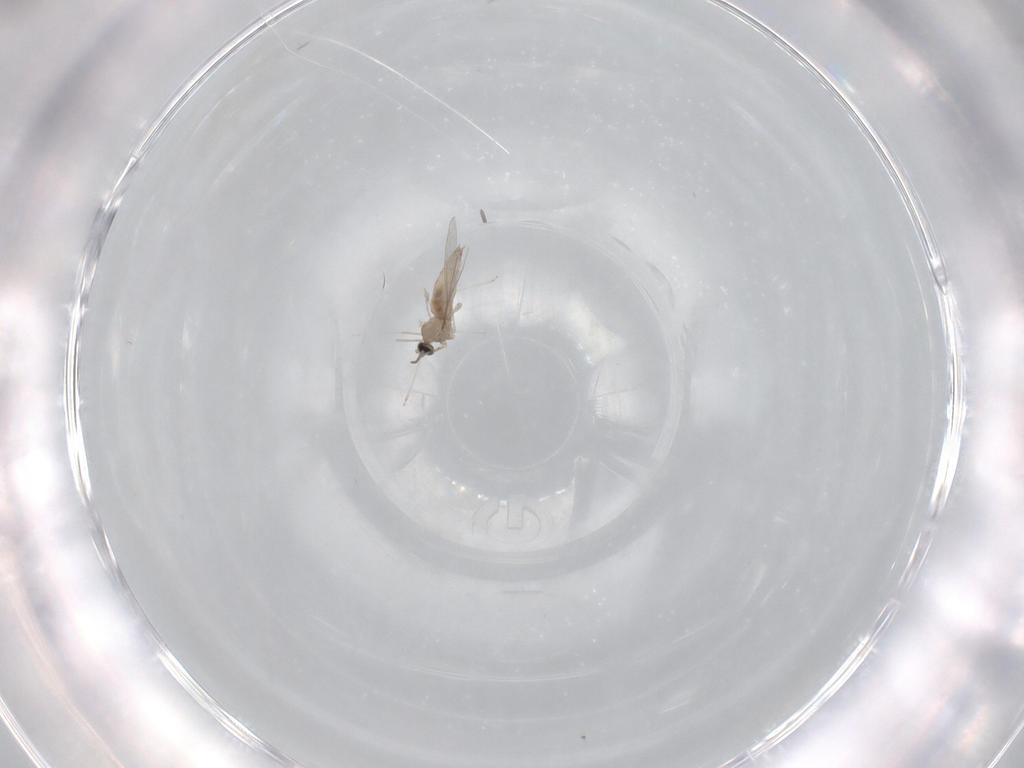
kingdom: Animalia
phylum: Arthropoda
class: Insecta
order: Diptera
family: Cecidomyiidae
